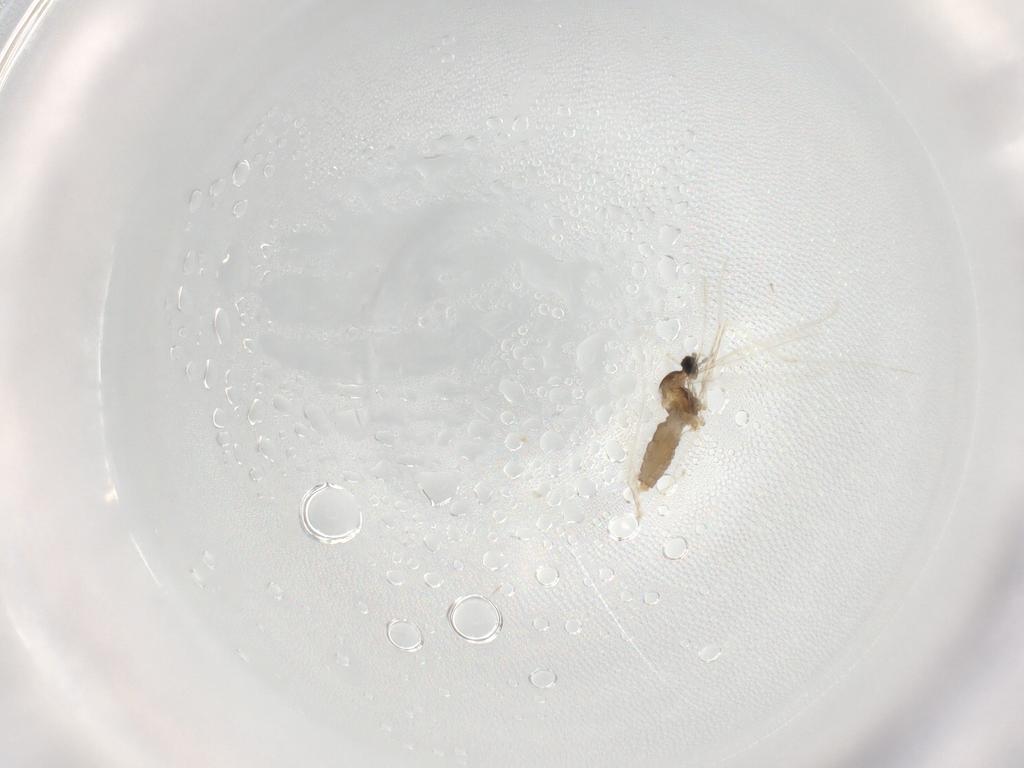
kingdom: Animalia
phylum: Arthropoda
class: Insecta
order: Diptera
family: Cecidomyiidae
